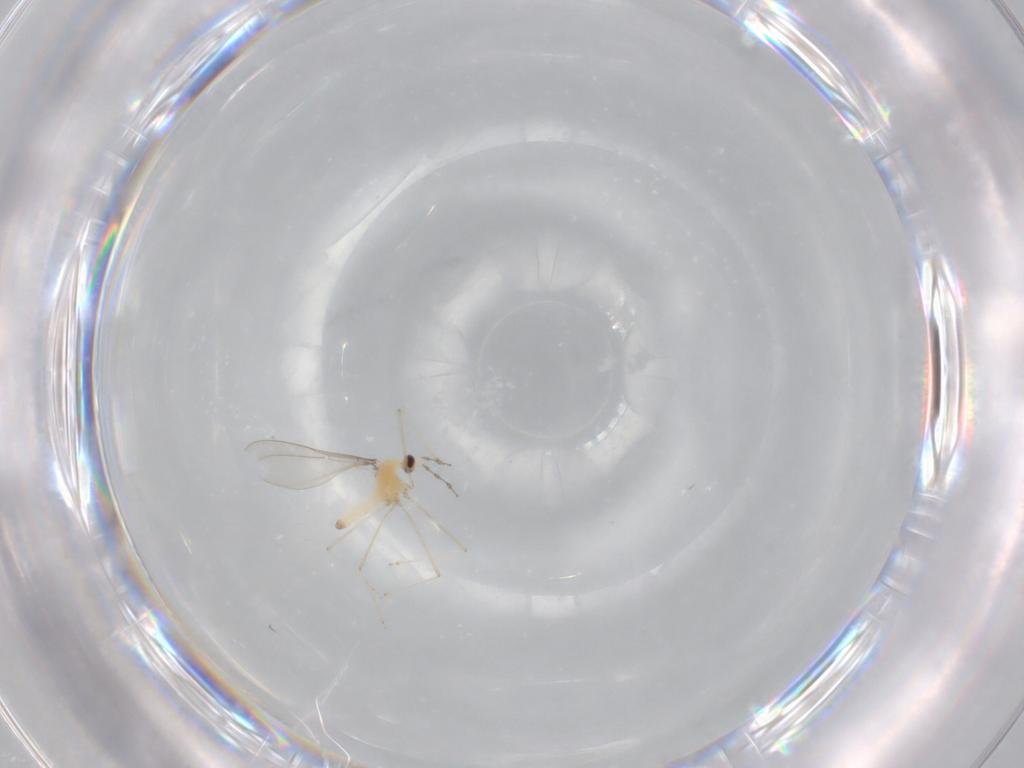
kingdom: Animalia
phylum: Arthropoda
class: Insecta
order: Diptera
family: Cecidomyiidae
